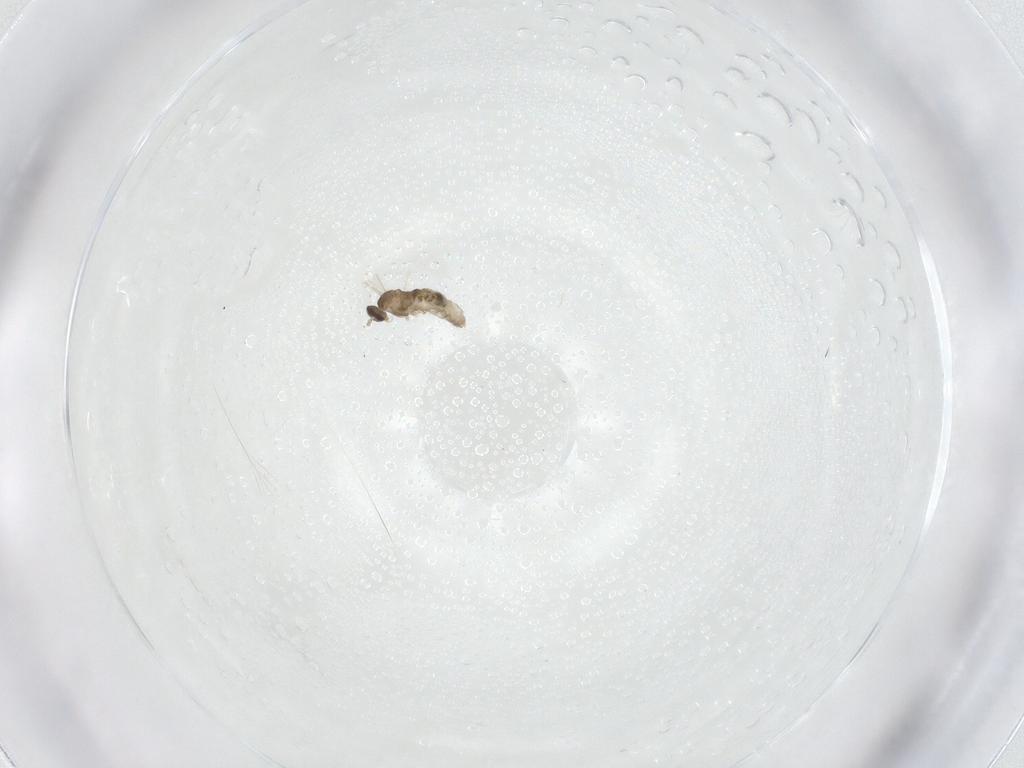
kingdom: Animalia
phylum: Arthropoda
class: Insecta
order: Diptera
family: Cecidomyiidae
